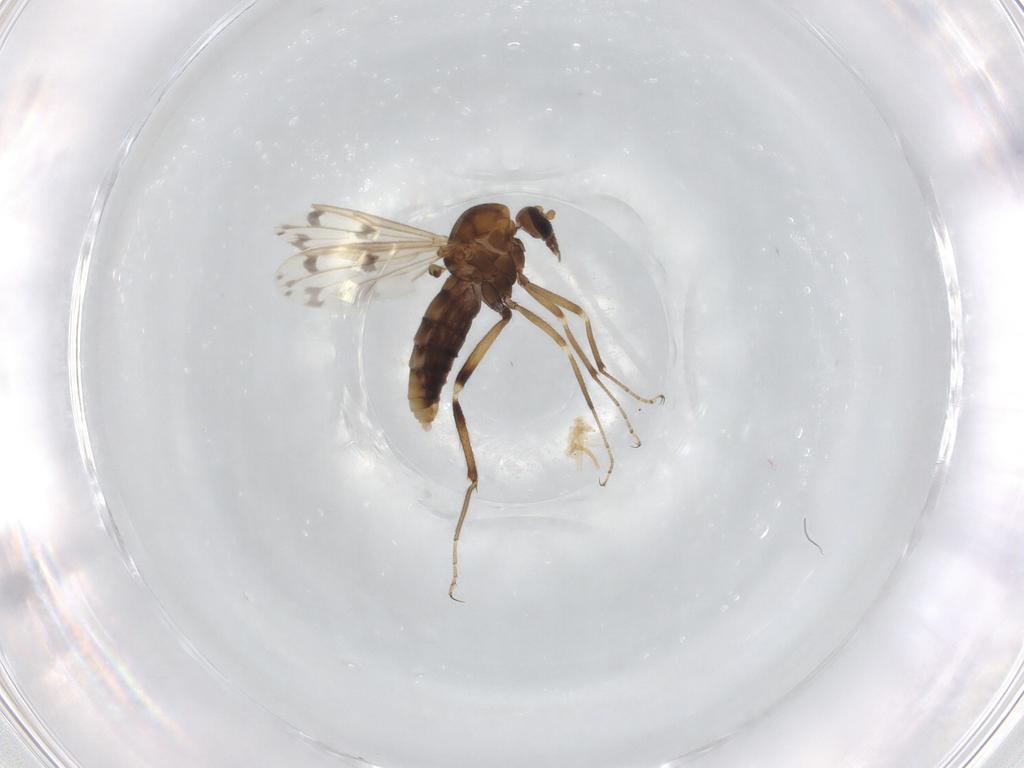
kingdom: Animalia
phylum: Arthropoda
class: Insecta
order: Diptera
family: Ceratopogonidae
